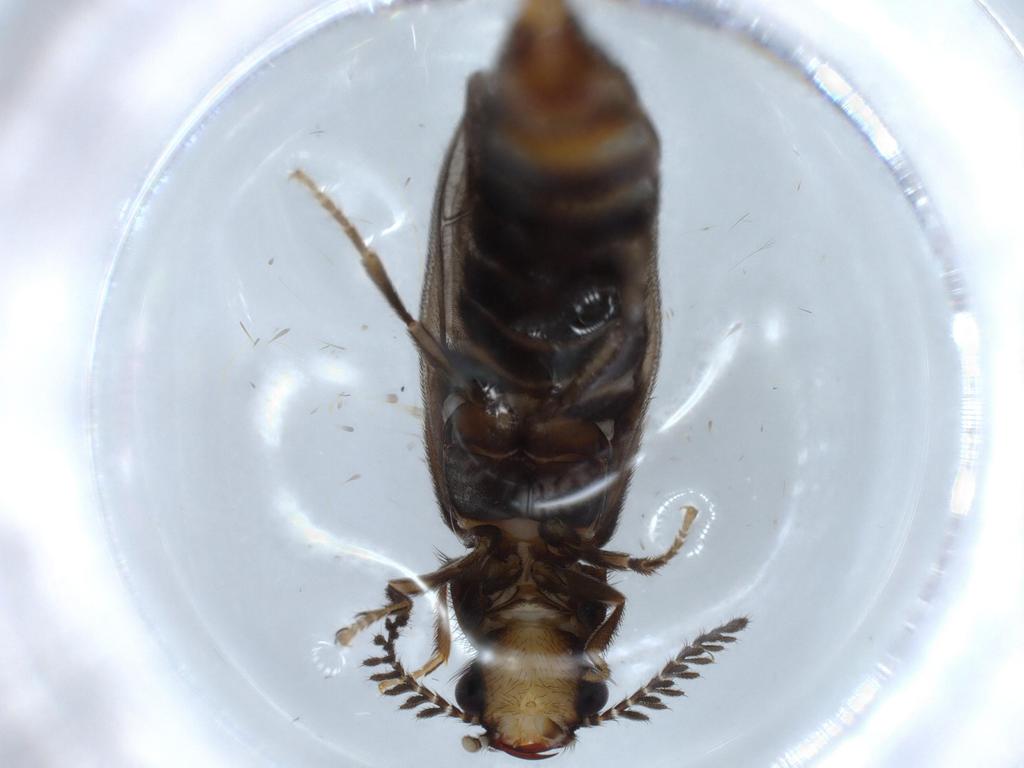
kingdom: Animalia
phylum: Arthropoda
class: Insecta
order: Coleoptera
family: Phengodidae
